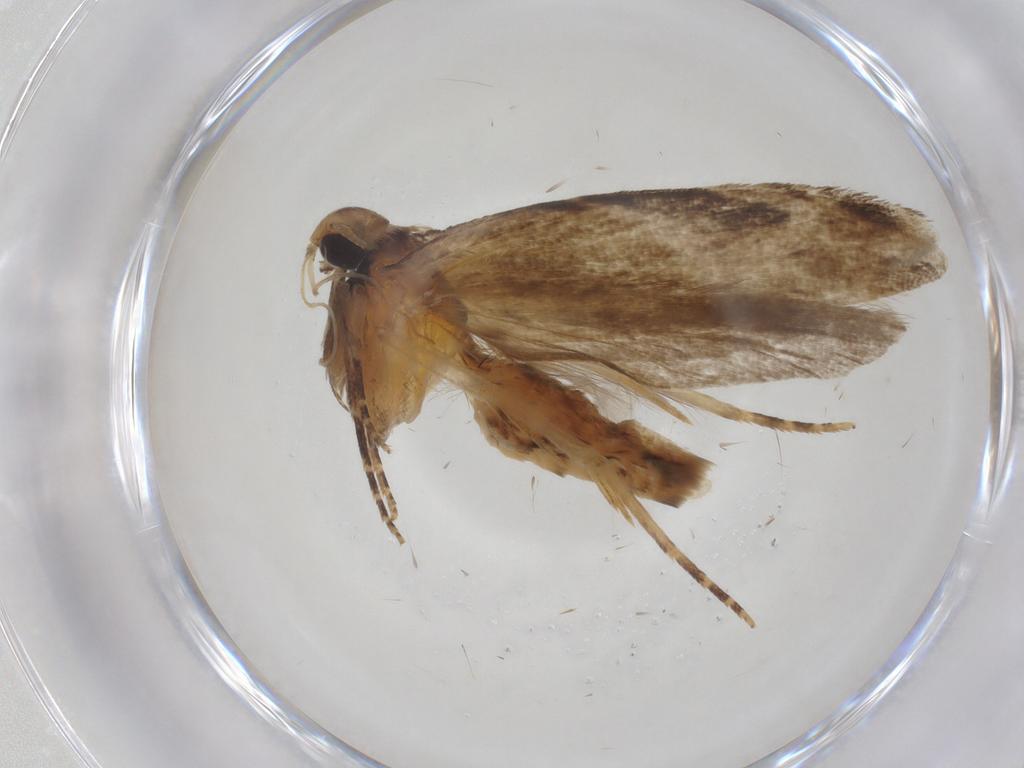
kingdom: Animalia
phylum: Arthropoda
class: Insecta
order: Lepidoptera
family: Gelechiidae
